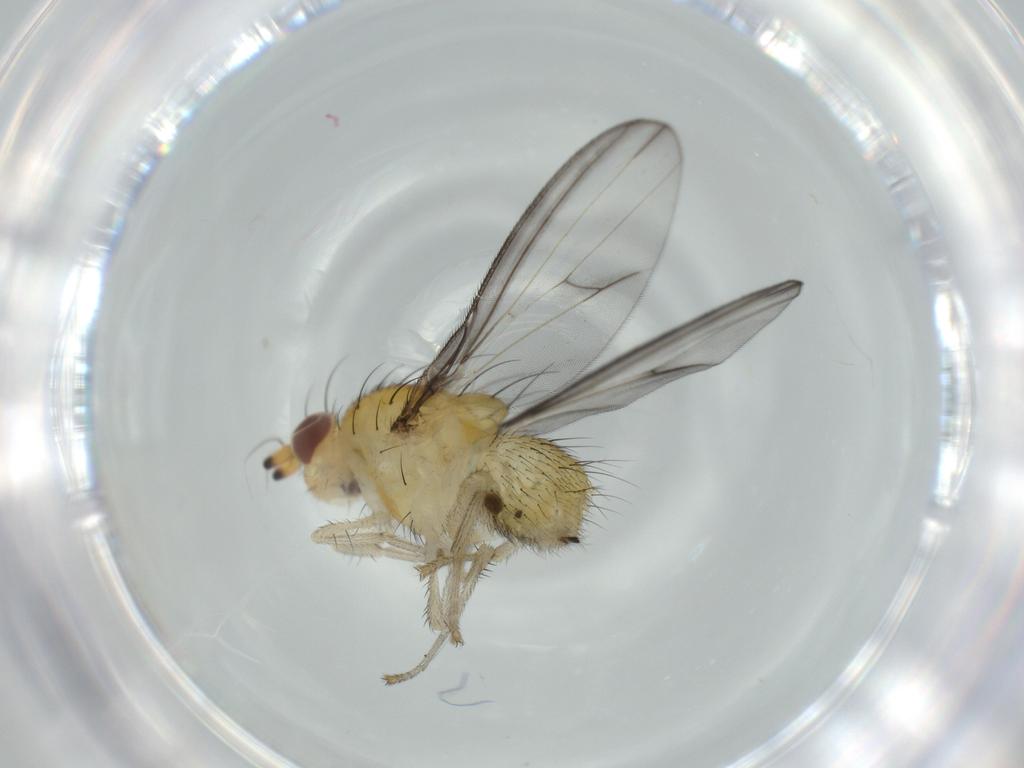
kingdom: Animalia
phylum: Arthropoda
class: Insecta
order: Diptera
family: Lauxaniidae
